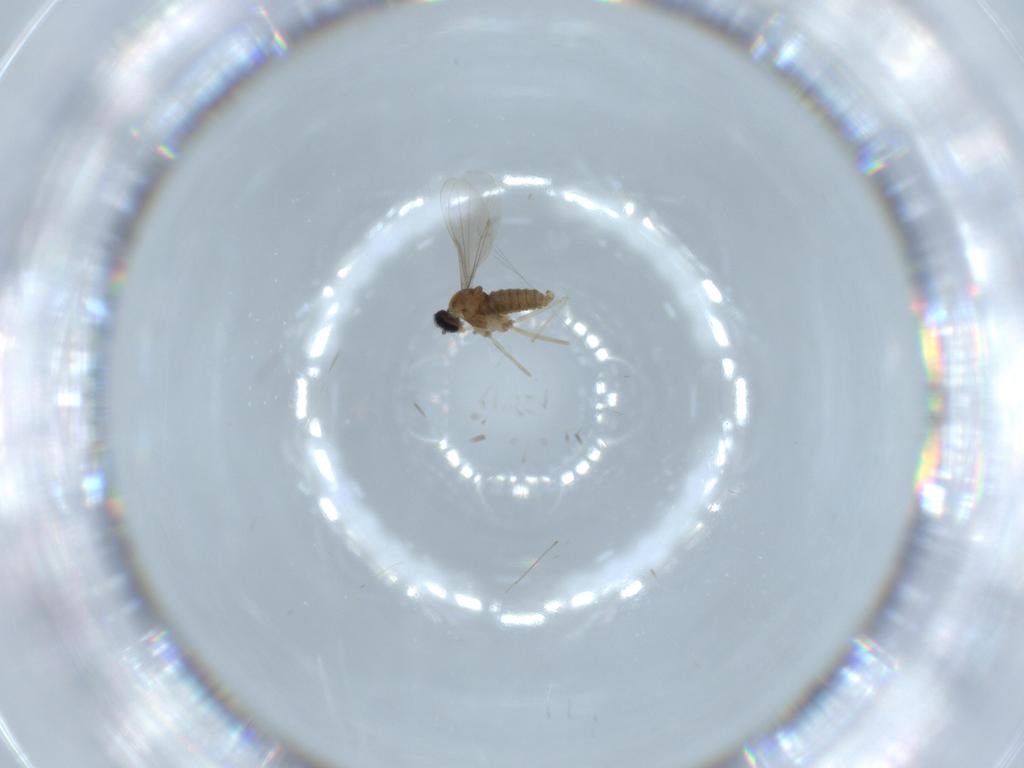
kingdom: Animalia
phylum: Arthropoda
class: Insecta
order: Diptera
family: Cecidomyiidae
